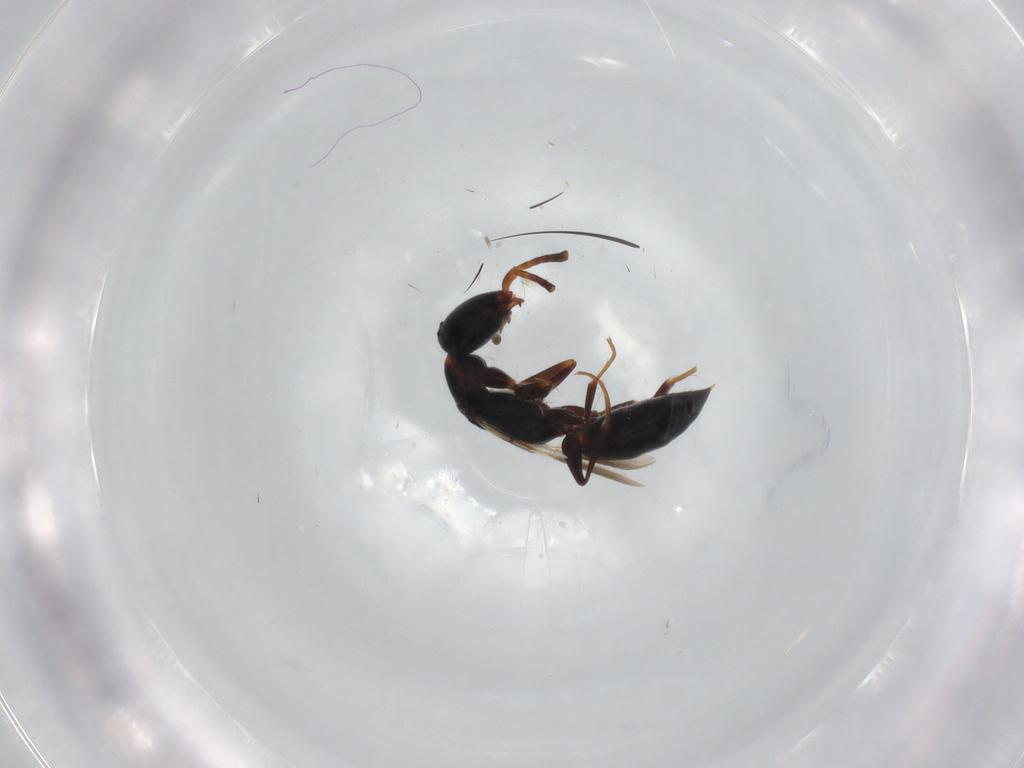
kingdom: Animalia
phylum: Arthropoda
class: Insecta
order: Hymenoptera
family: Bethylidae
